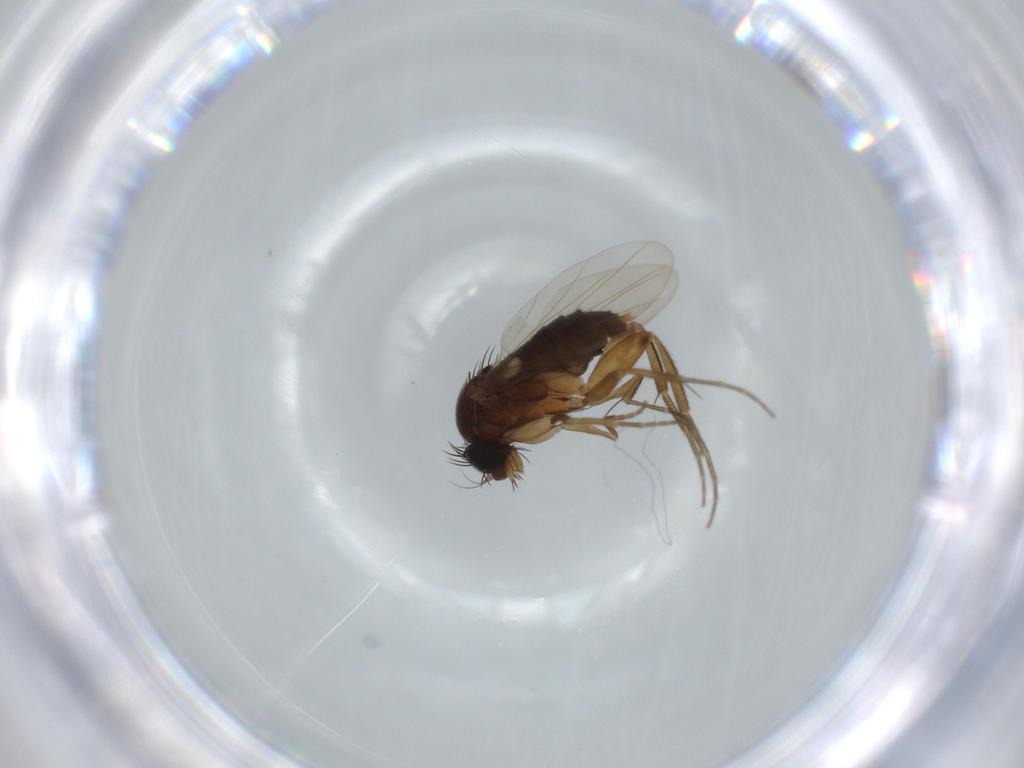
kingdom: Animalia
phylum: Arthropoda
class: Insecta
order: Diptera
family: Phoridae
